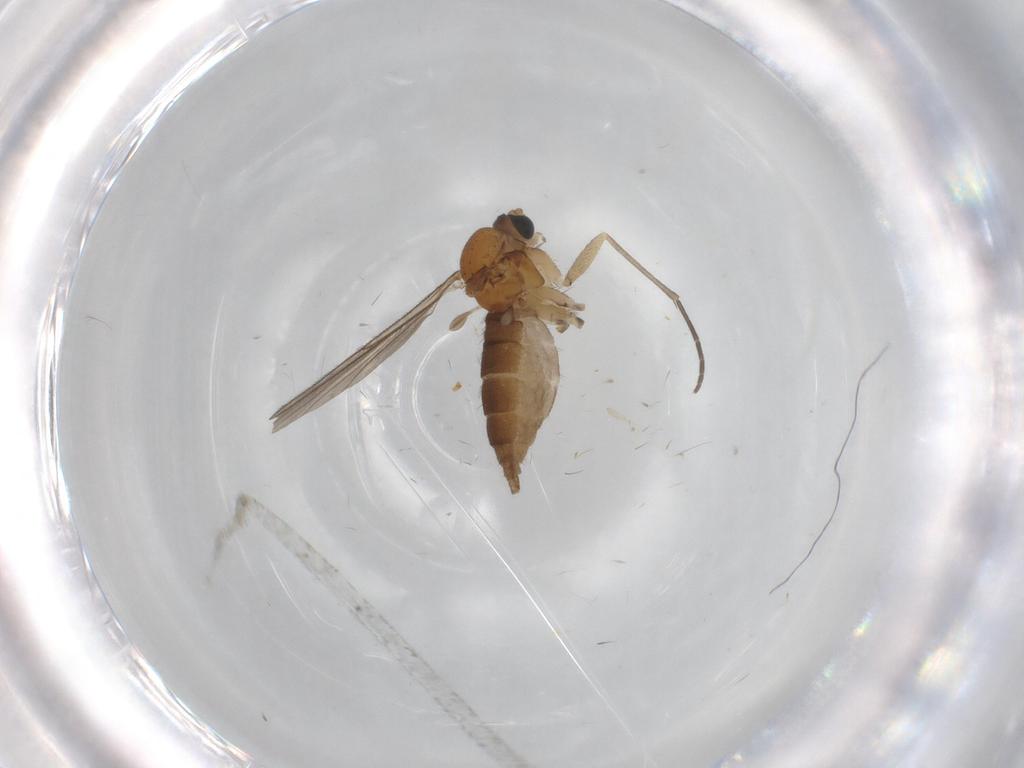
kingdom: Animalia
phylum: Arthropoda
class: Insecta
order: Diptera
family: Sciaridae
